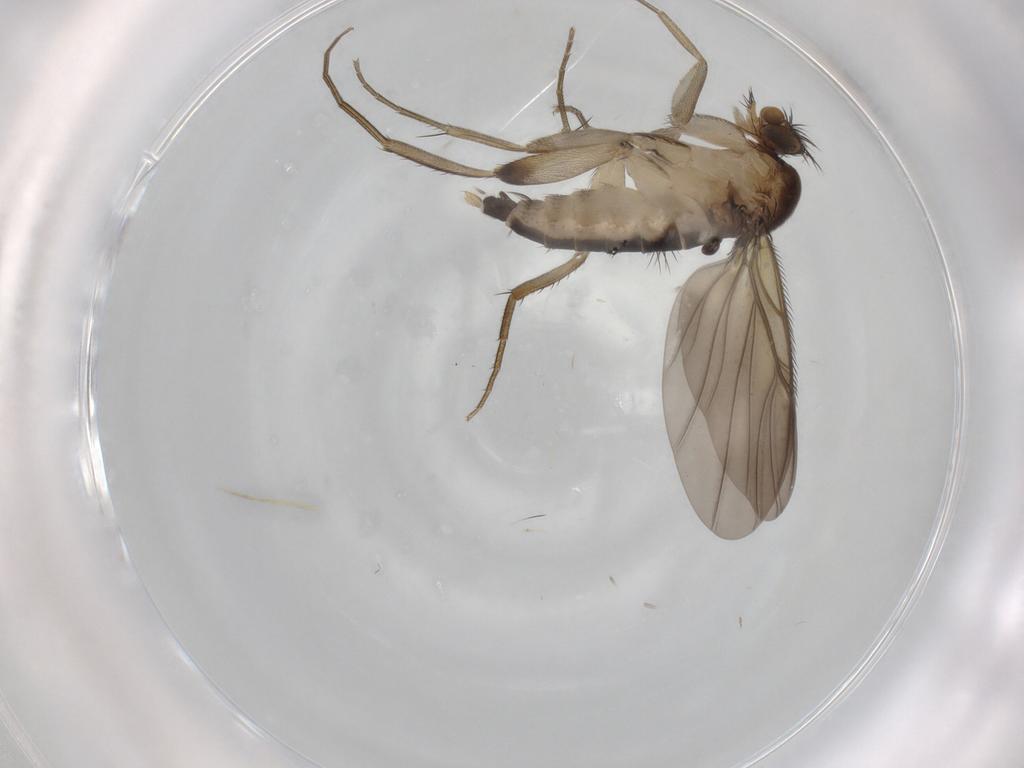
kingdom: Animalia
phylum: Arthropoda
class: Insecta
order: Diptera
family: Phoridae
